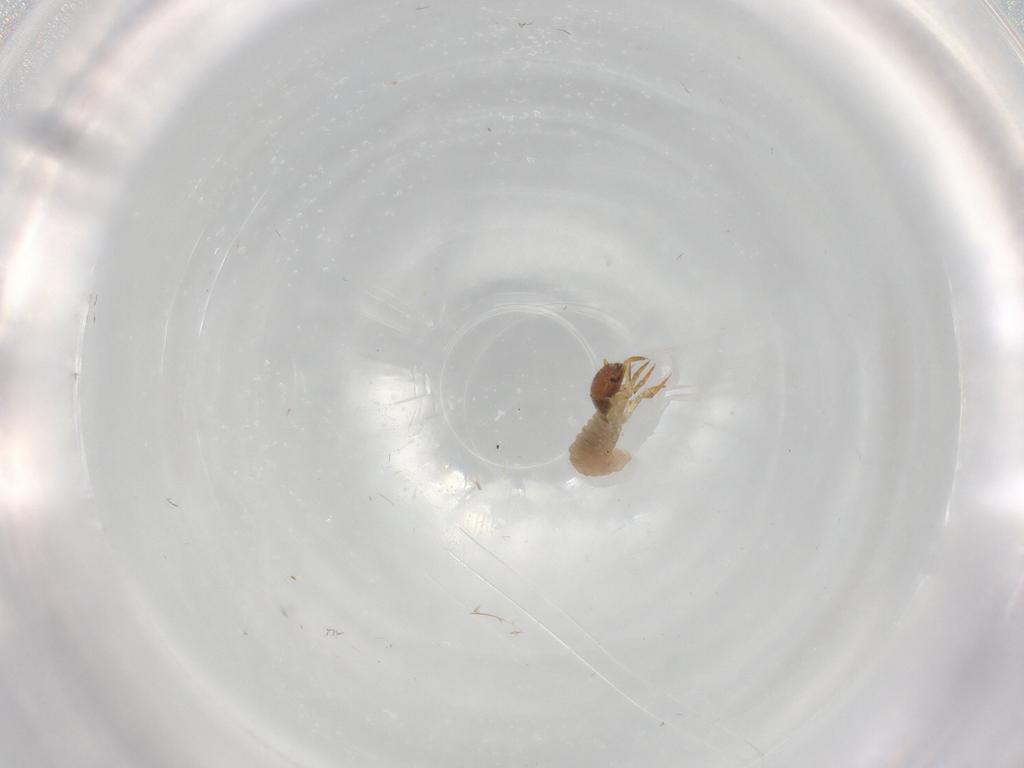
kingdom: Animalia
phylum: Arthropoda
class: Insecta
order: Coleoptera
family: Chrysomelidae
